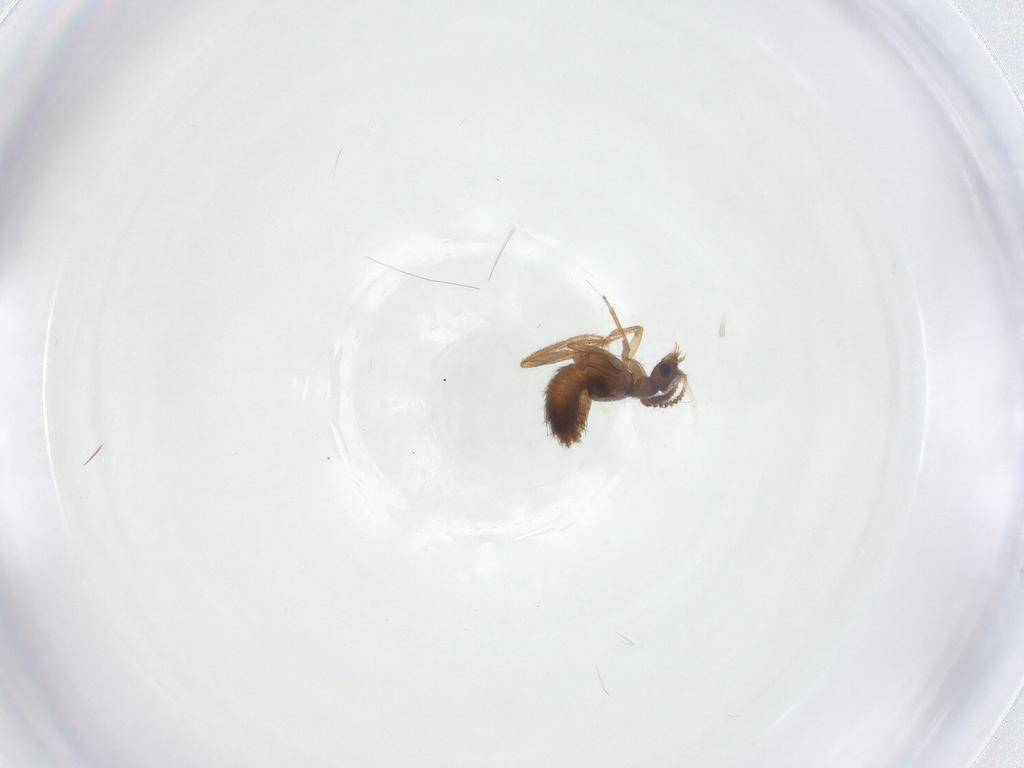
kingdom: Animalia
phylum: Arthropoda
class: Insecta
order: Coleoptera
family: Staphylinidae
